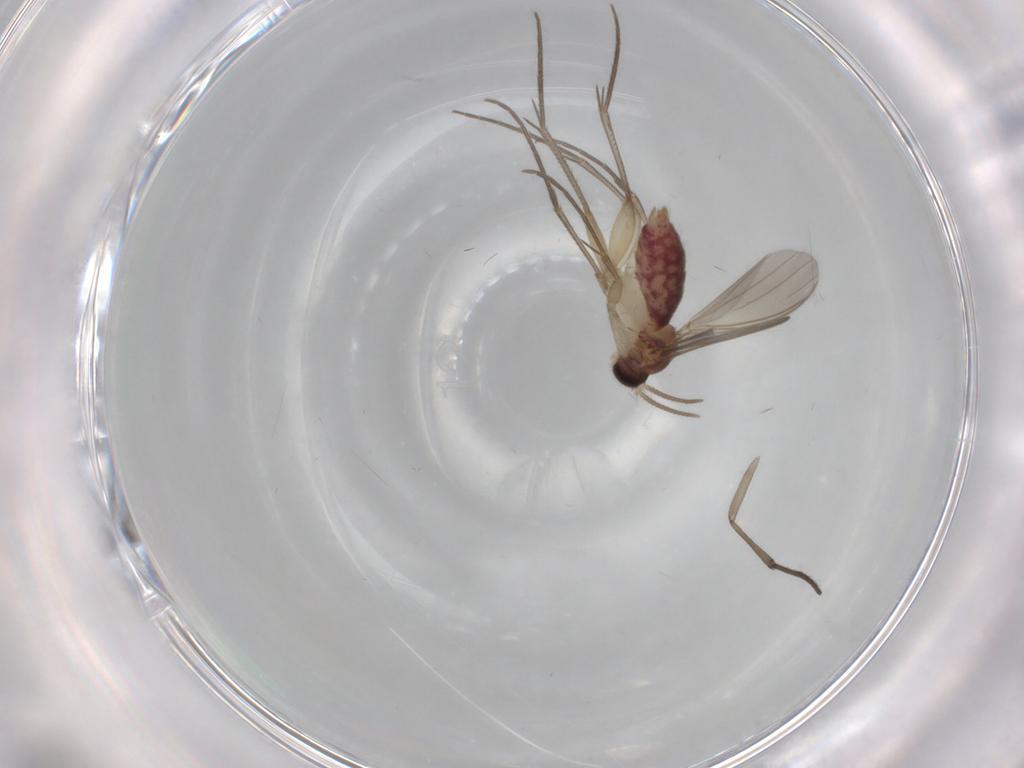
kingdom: Animalia
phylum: Arthropoda
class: Insecta
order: Diptera
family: Mycetophilidae
